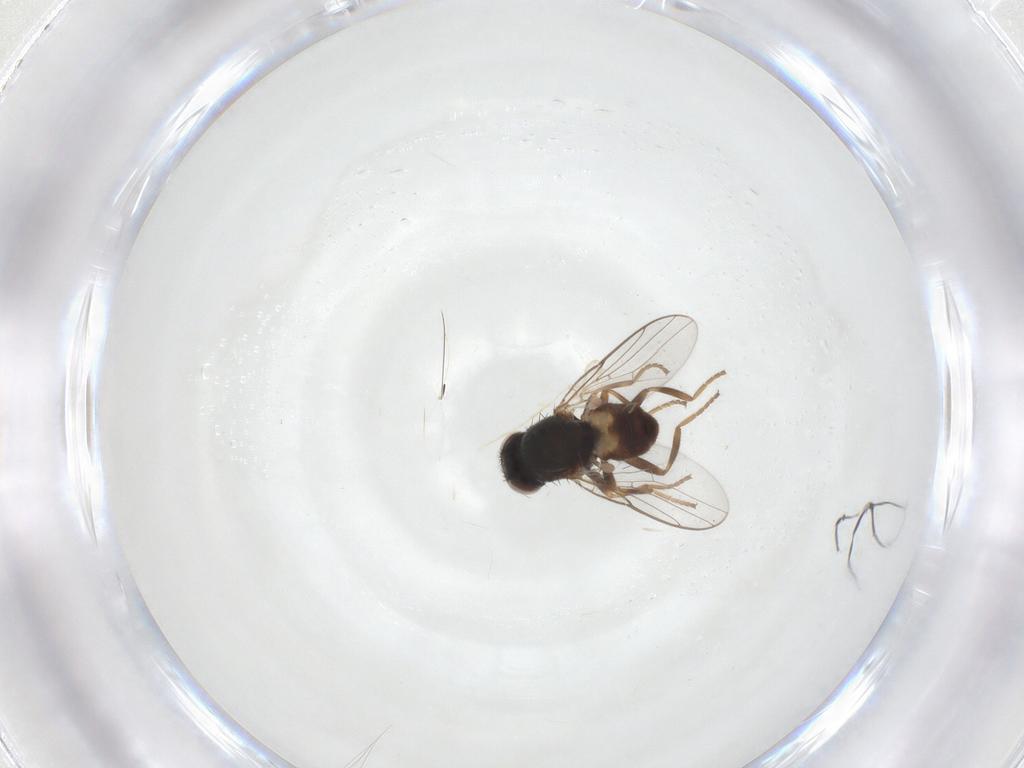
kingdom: Animalia
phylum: Arthropoda
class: Insecta
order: Diptera
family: Chloropidae
